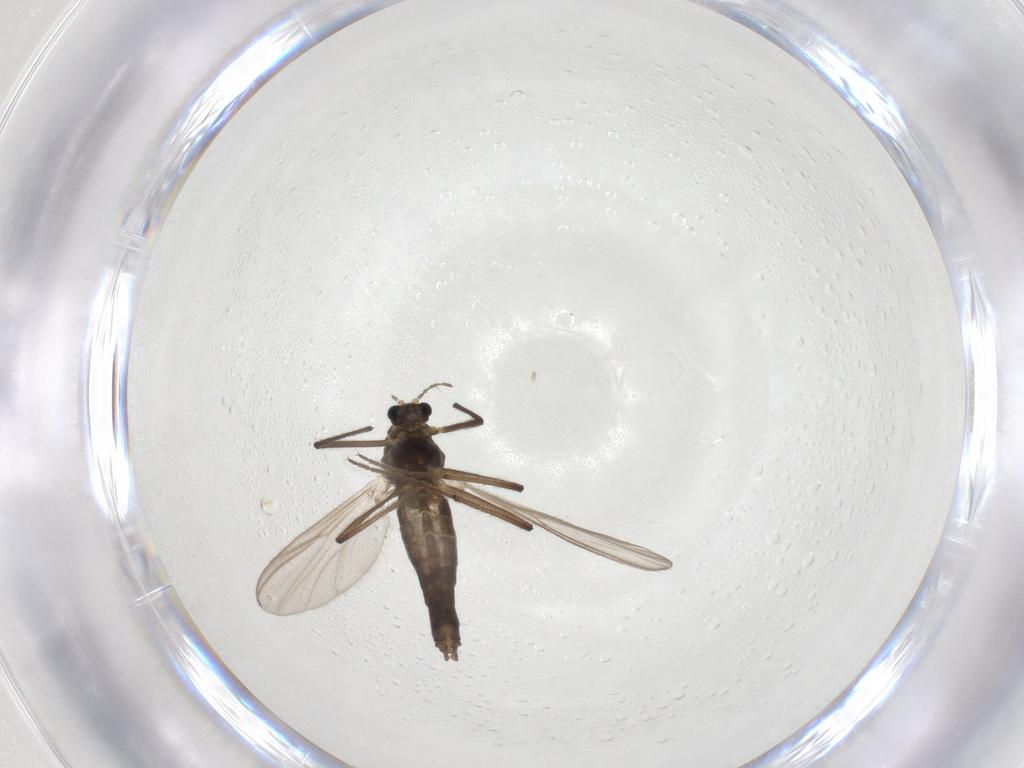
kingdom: Animalia
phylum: Arthropoda
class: Insecta
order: Diptera
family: Chironomidae
